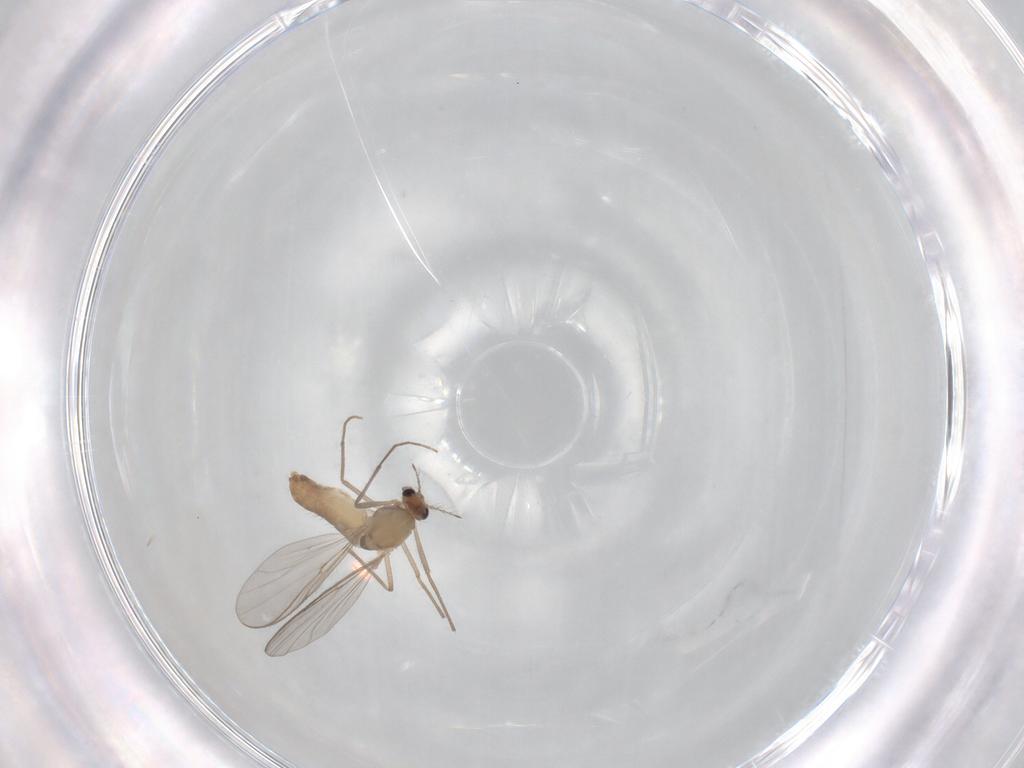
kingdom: Animalia
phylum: Arthropoda
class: Insecta
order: Diptera
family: Chironomidae
